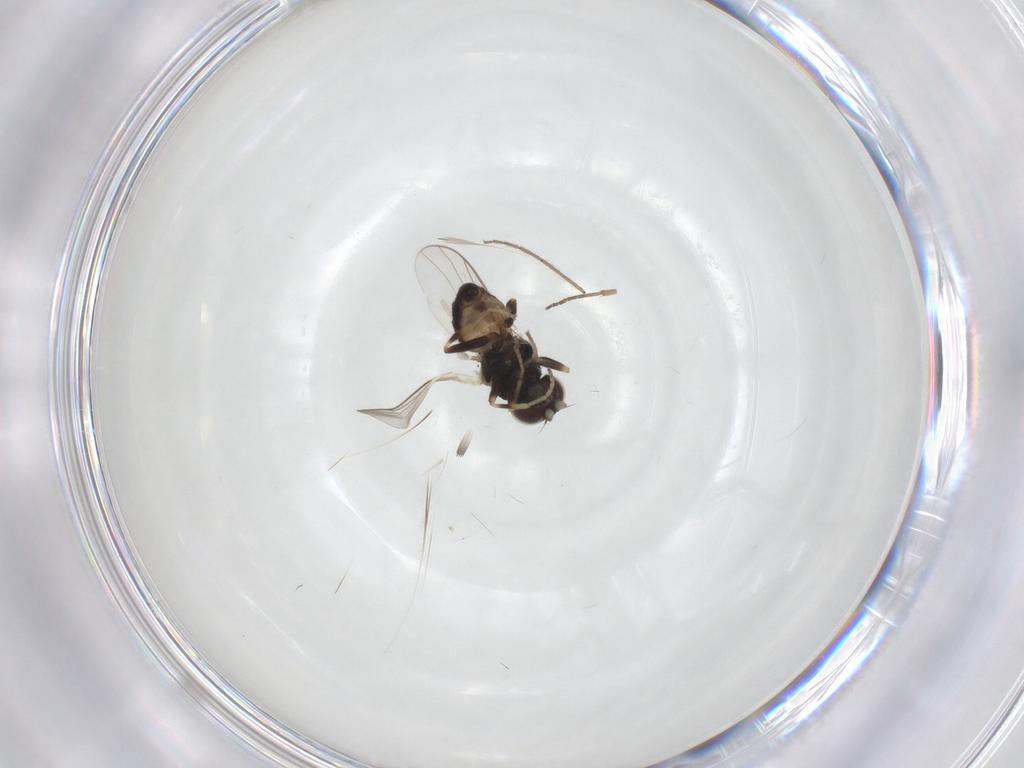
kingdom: Animalia
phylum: Arthropoda
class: Insecta
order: Diptera
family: Chloropidae
